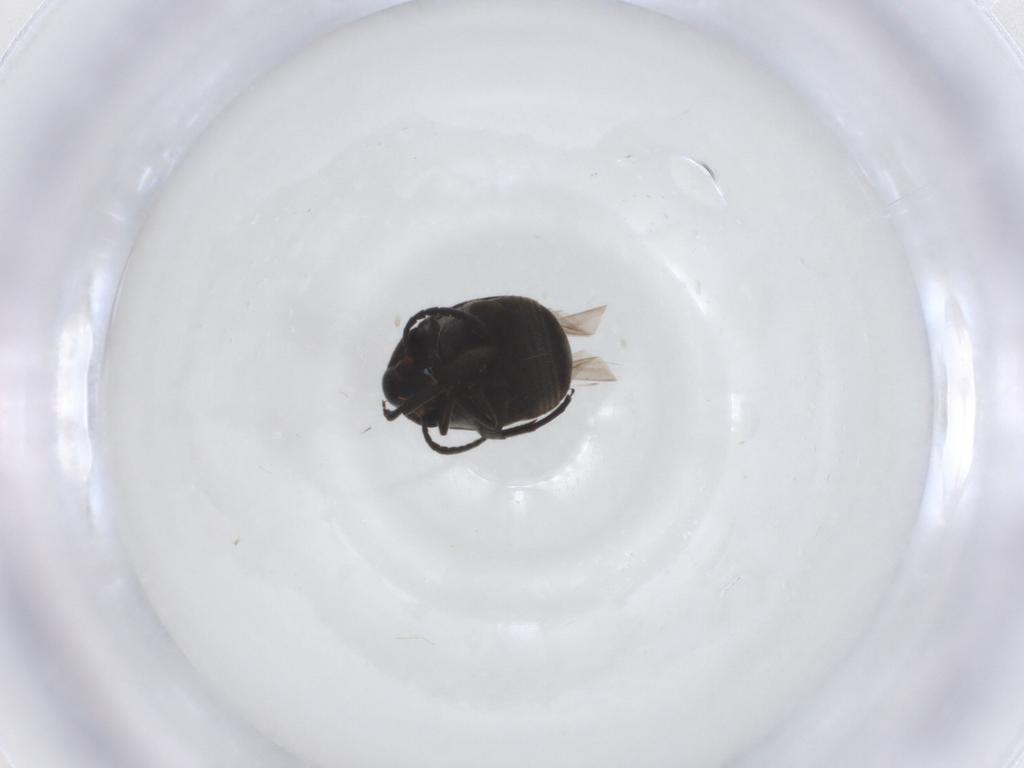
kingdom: Animalia
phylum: Arthropoda
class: Insecta
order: Coleoptera
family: Chrysomelidae
